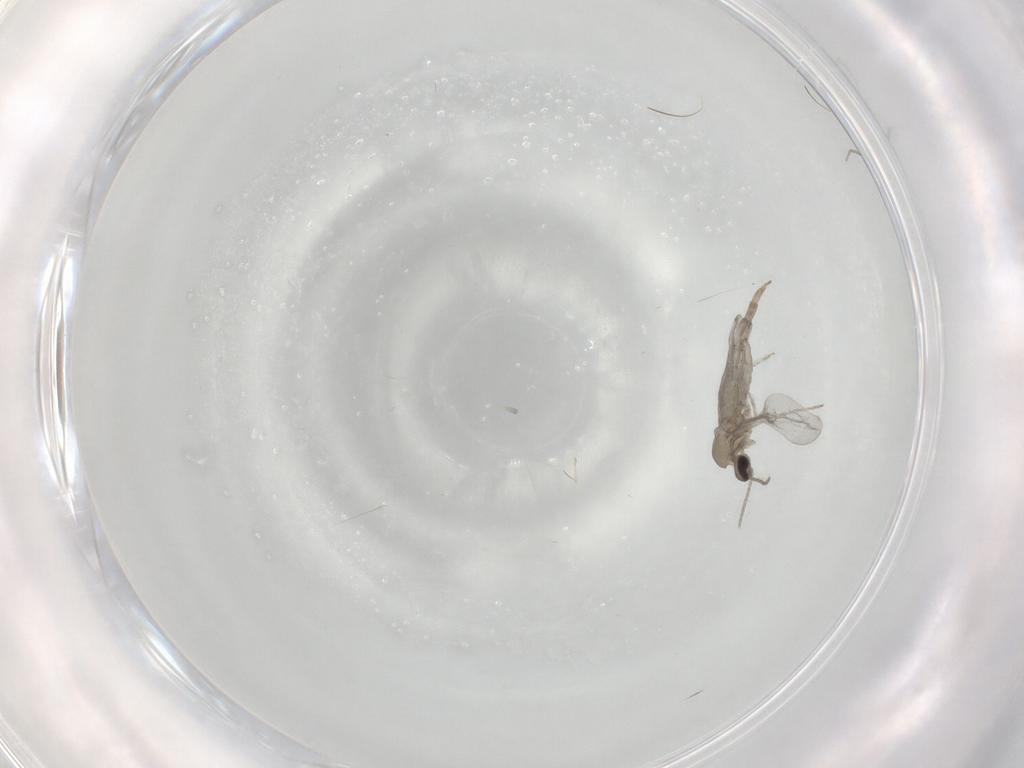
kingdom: Animalia
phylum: Arthropoda
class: Insecta
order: Diptera
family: Cecidomyiidae
